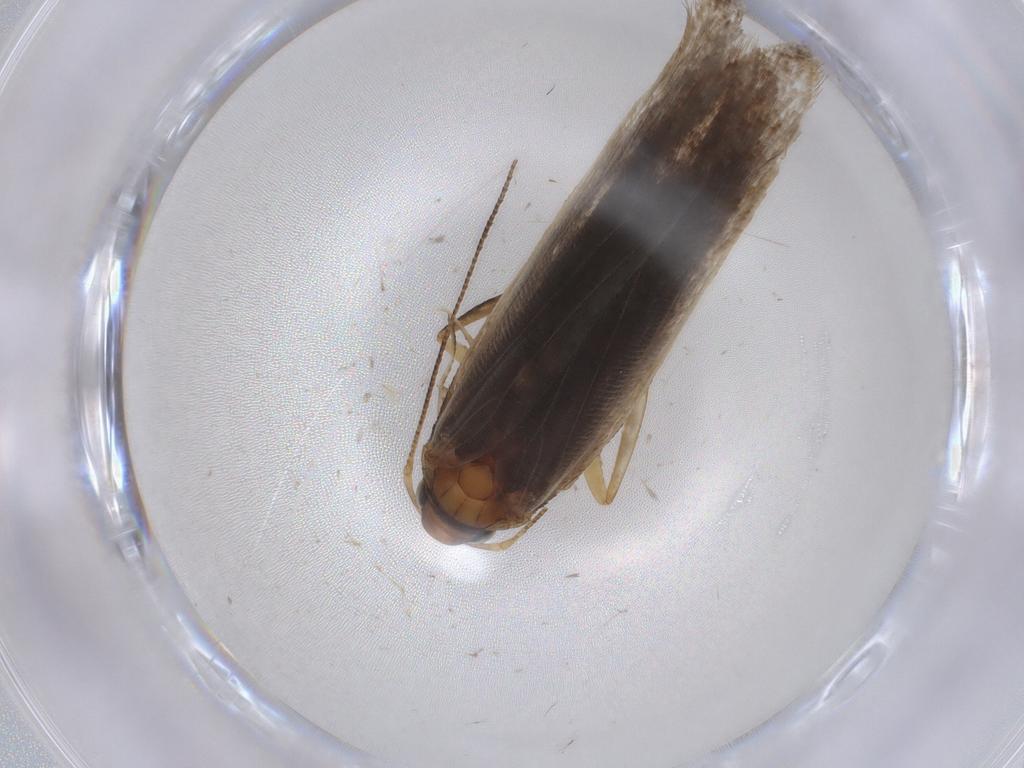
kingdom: Animalia
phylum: Arthropoda
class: Insecta
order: Lepidoptera
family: Gelechiidae
